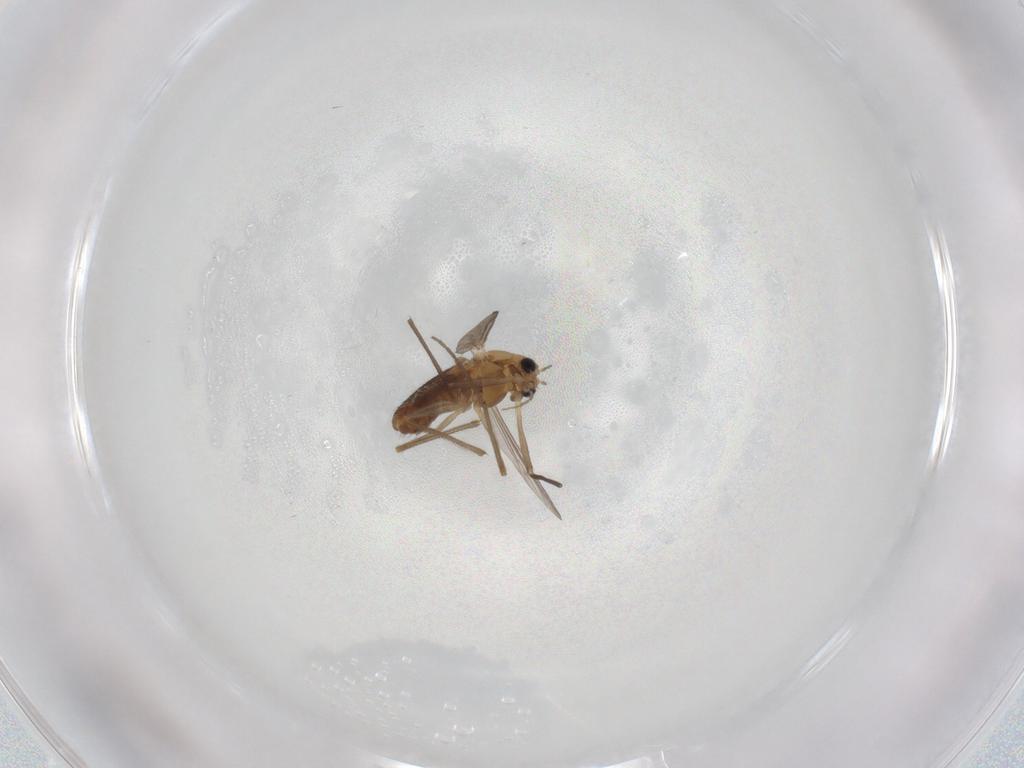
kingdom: Animalia
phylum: Arthropoda
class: Insecta
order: Diptera
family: Chironomidae
